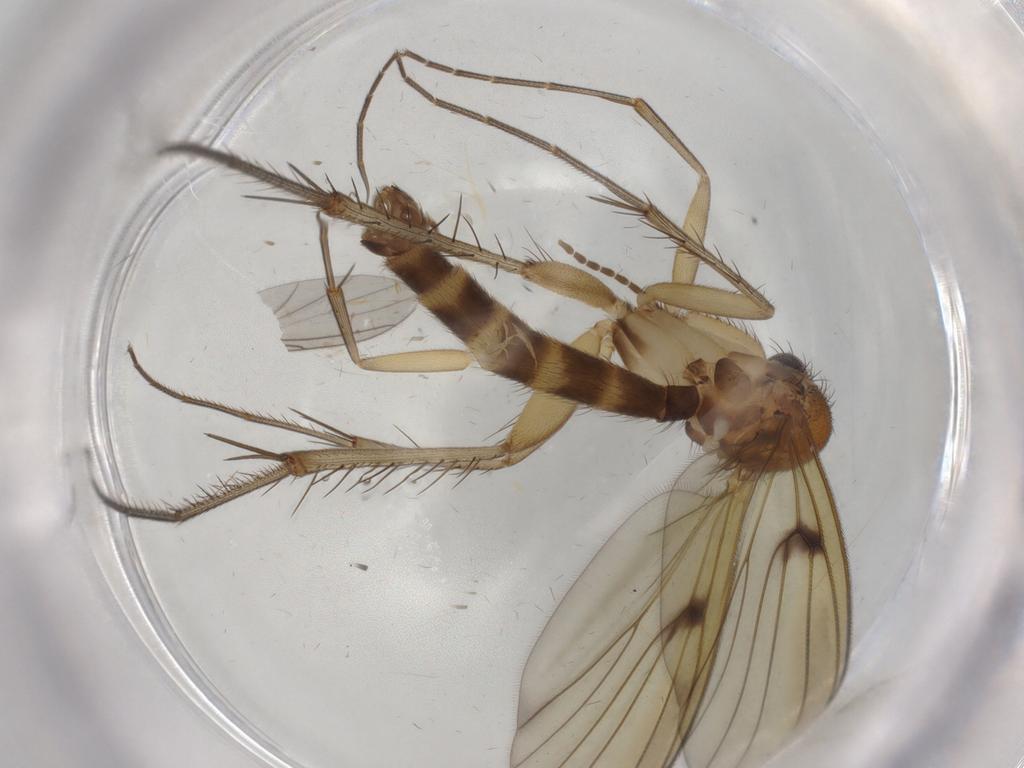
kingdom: Animalia
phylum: Arthropoda
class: Insecta
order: Diptera
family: Mycetophilidae
